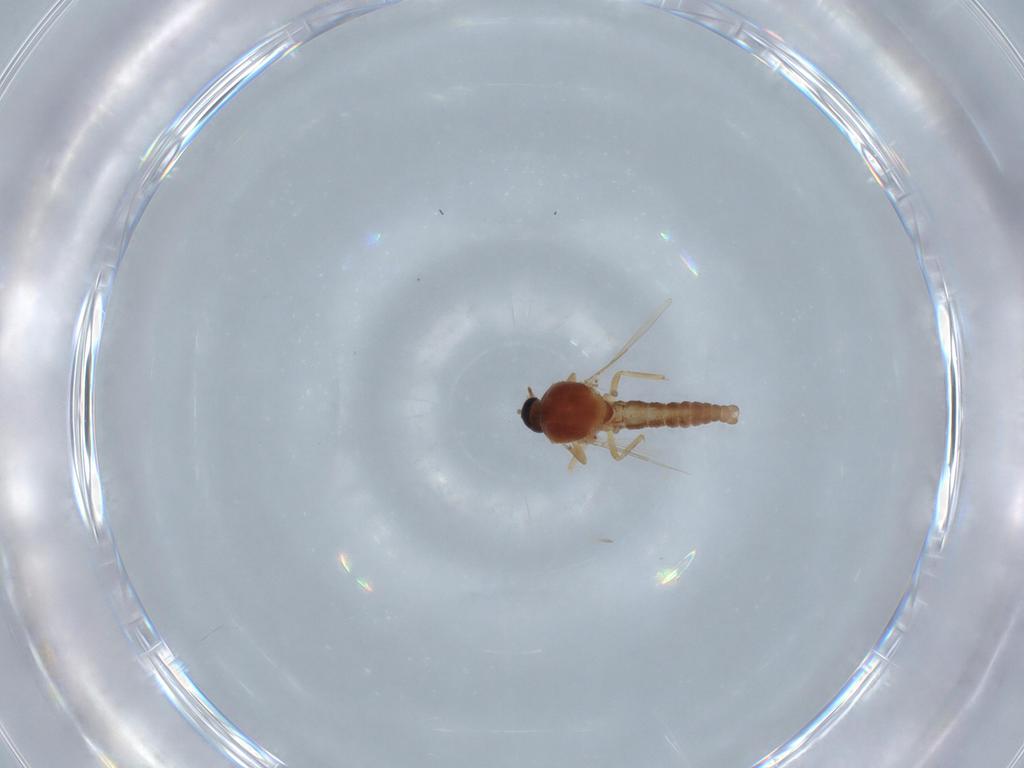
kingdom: Animalia
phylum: Arthropoda
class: Insecta
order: Diptera
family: Ceratopogonidae
